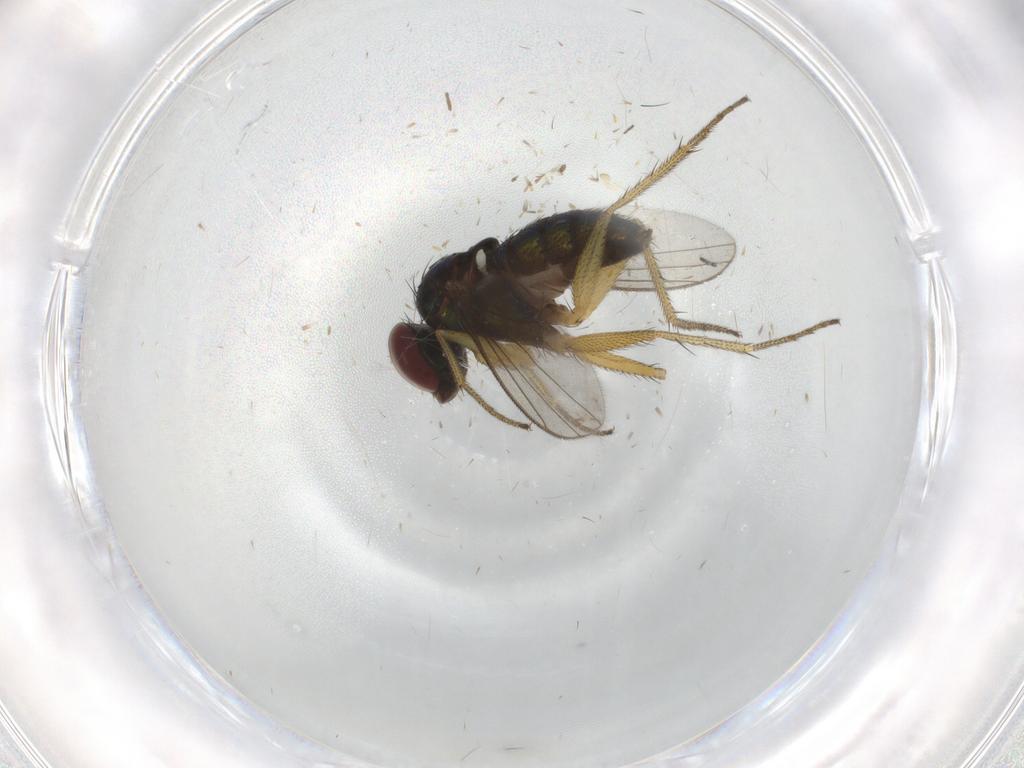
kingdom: Animalia
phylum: Arthropoda
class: Insecta
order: Diptera
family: Dolichopodidae
